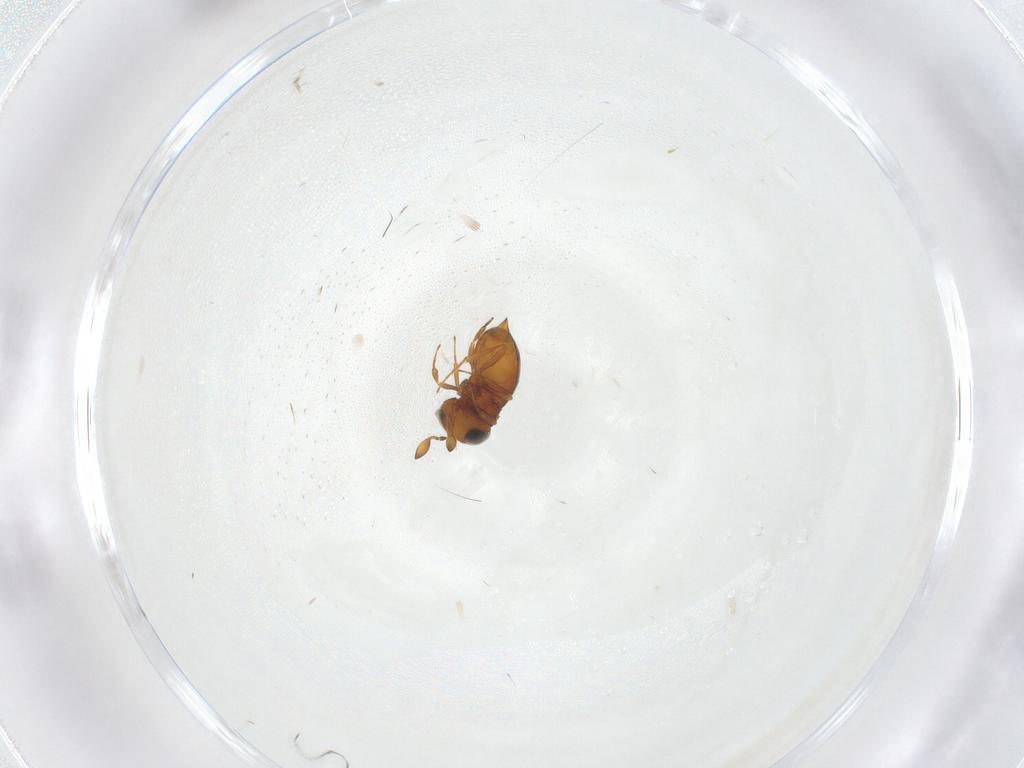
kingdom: Animalia
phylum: Arthropoda
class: Insecta
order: Hymenoptera
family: Scelionidae
